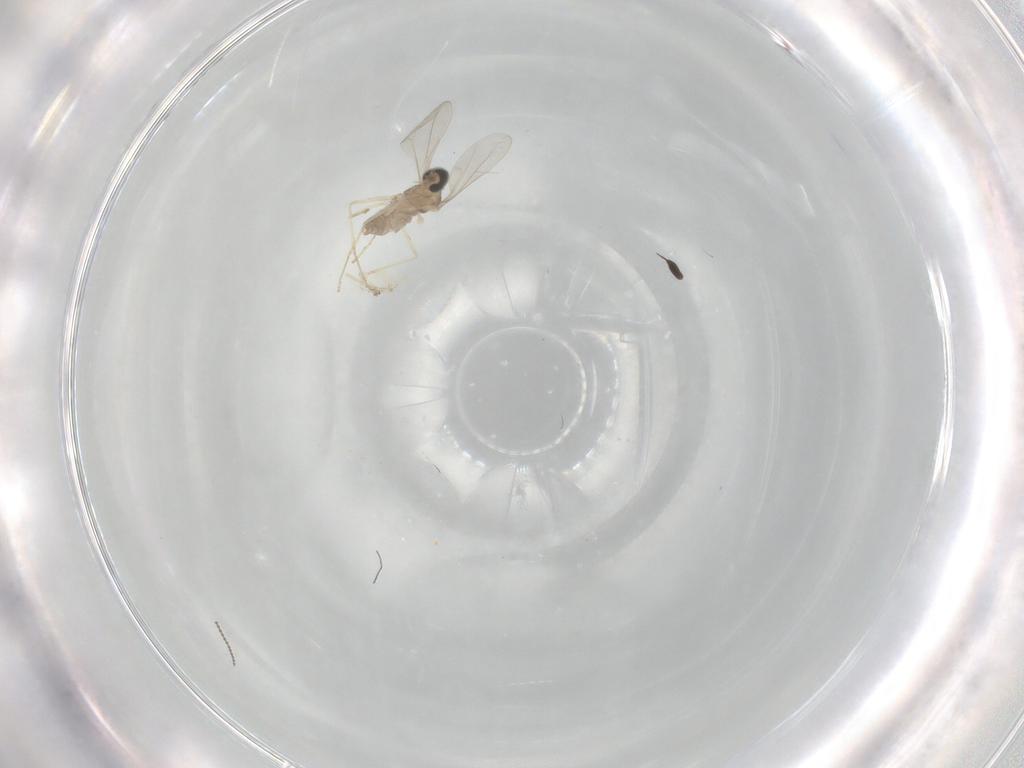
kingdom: Animalia
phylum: Arthropoda
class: Insecta
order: Diptera
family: Cecidomyiidae
